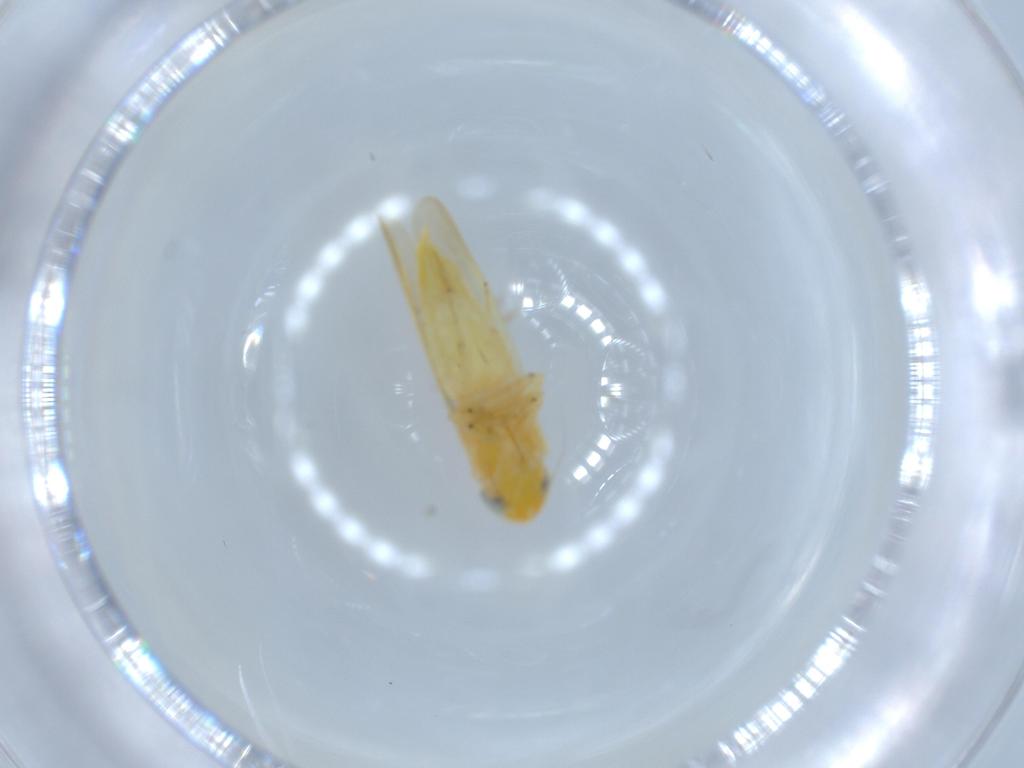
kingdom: Animalia
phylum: Arthropoda
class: Insecta
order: Hemiptera
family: Cicadellidae
